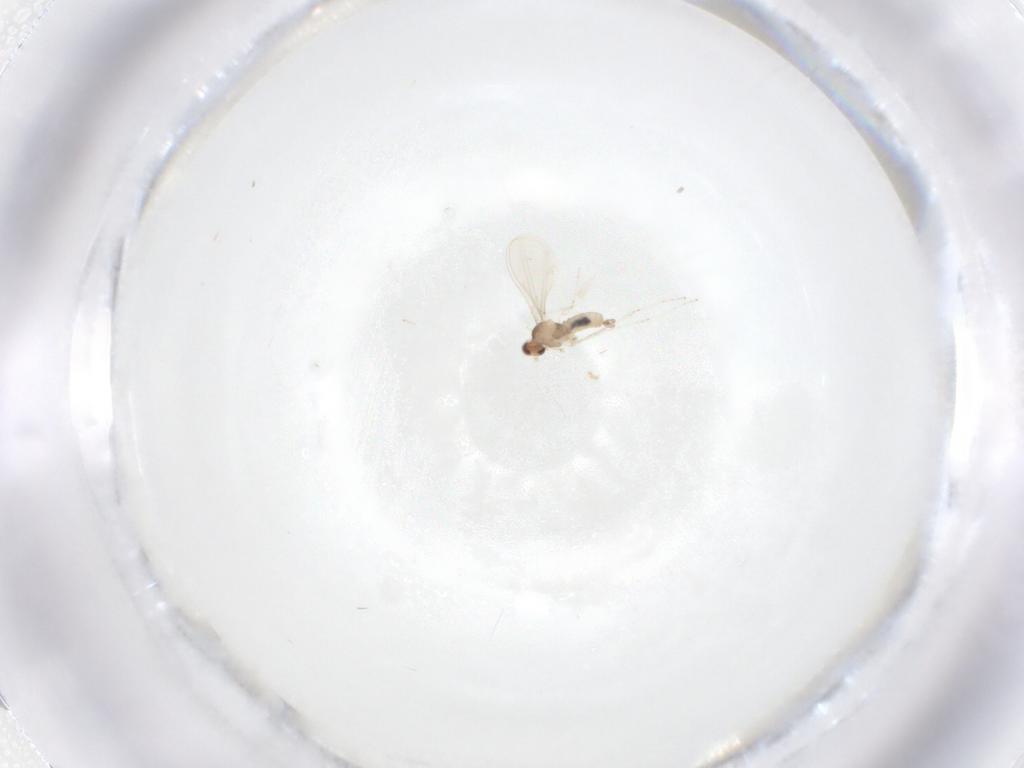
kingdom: Animalia
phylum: Arthropoda
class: Insecta
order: Diptera
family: Cecidomyiidae
